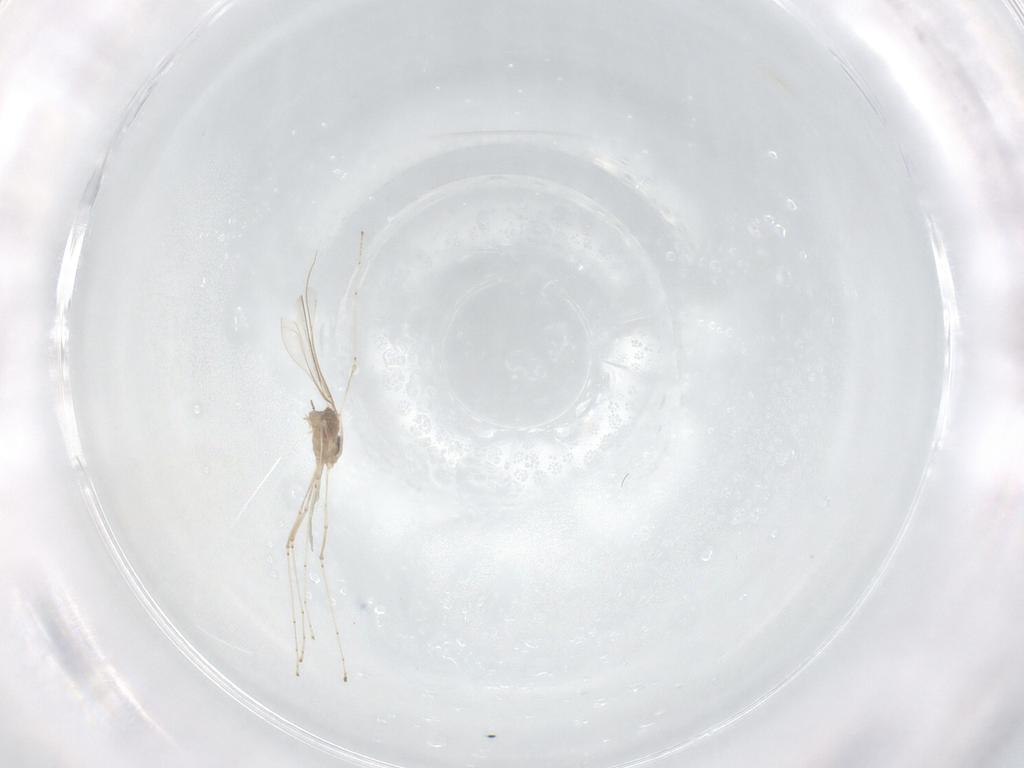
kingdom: Animalia
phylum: Arthropoda
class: Insecta
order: Diptera
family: Cecidomyiidae
